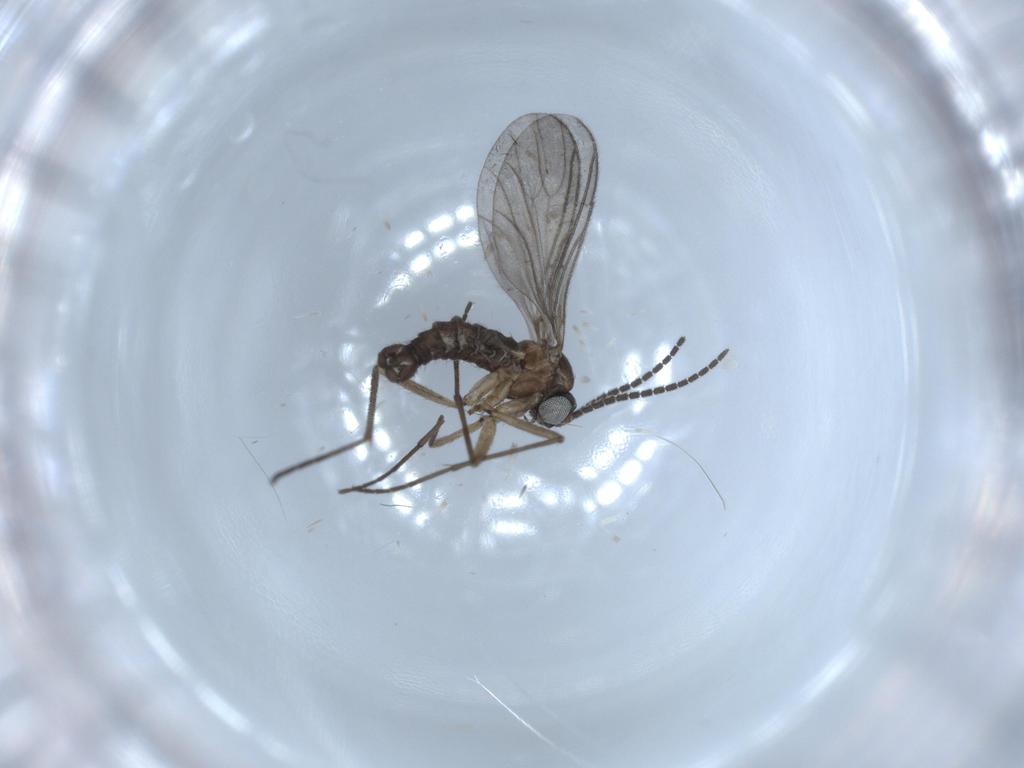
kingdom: Animalia
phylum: Arthropoda
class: Insecta
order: Diptera
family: Sciaridae
